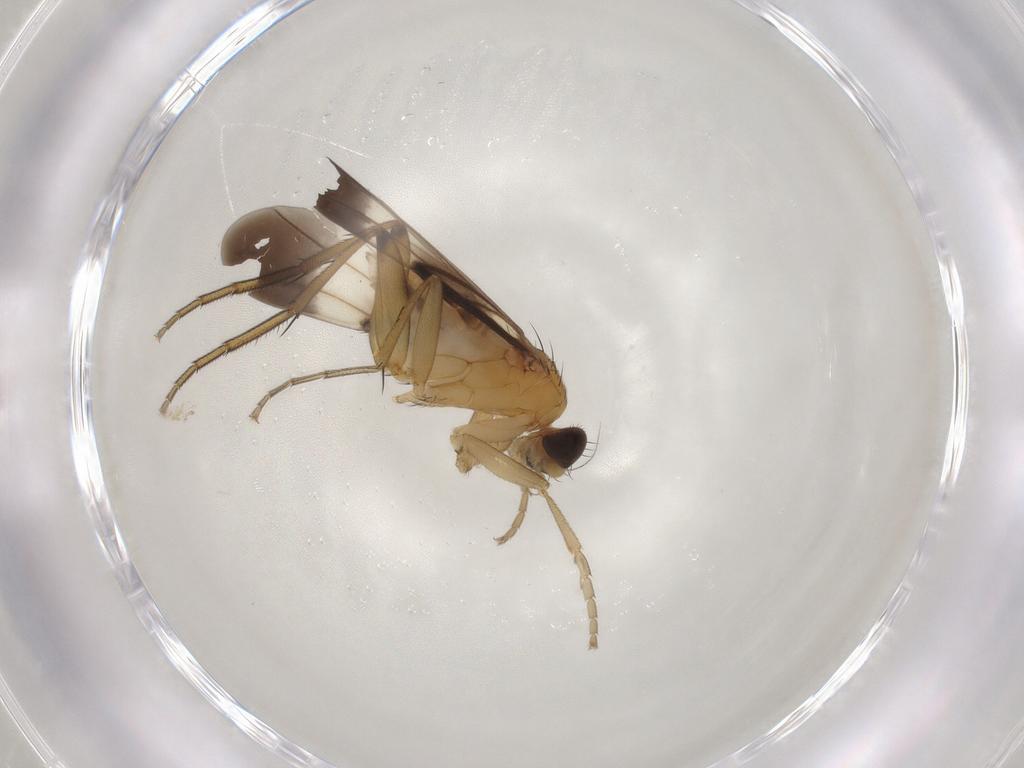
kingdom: Animalia
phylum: Arthropoda
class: Insecta
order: Diptera
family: Phoridae
